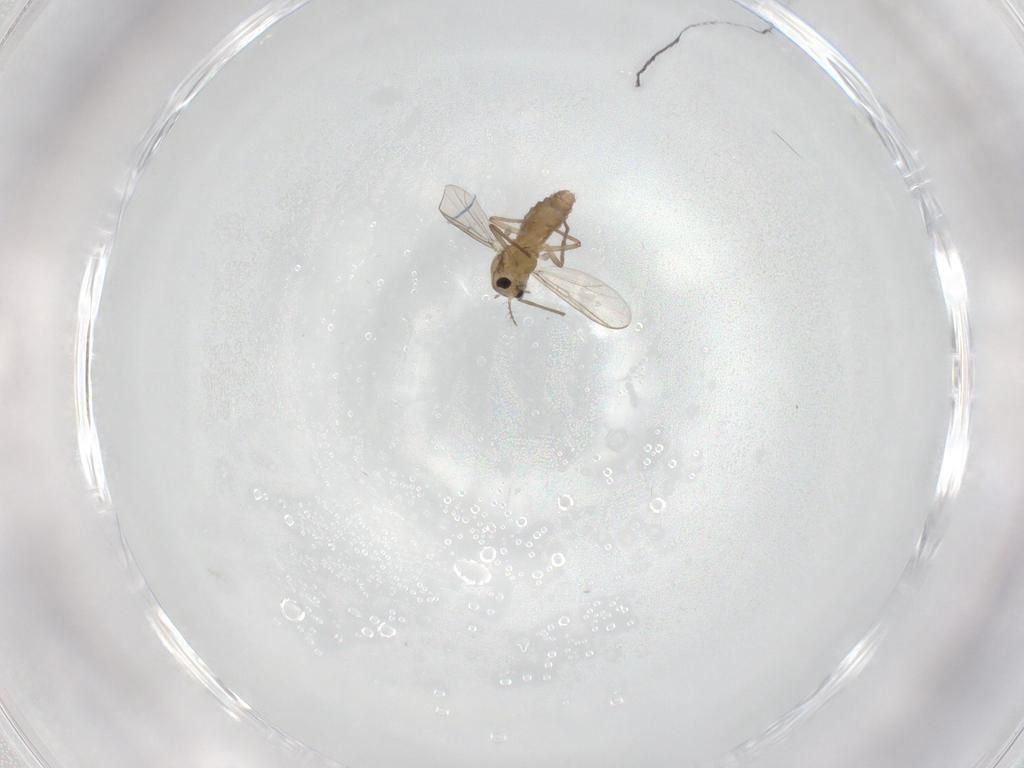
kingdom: Animalia
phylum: Arthropoda
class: Insecta
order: Diptera
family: Chironomidae
